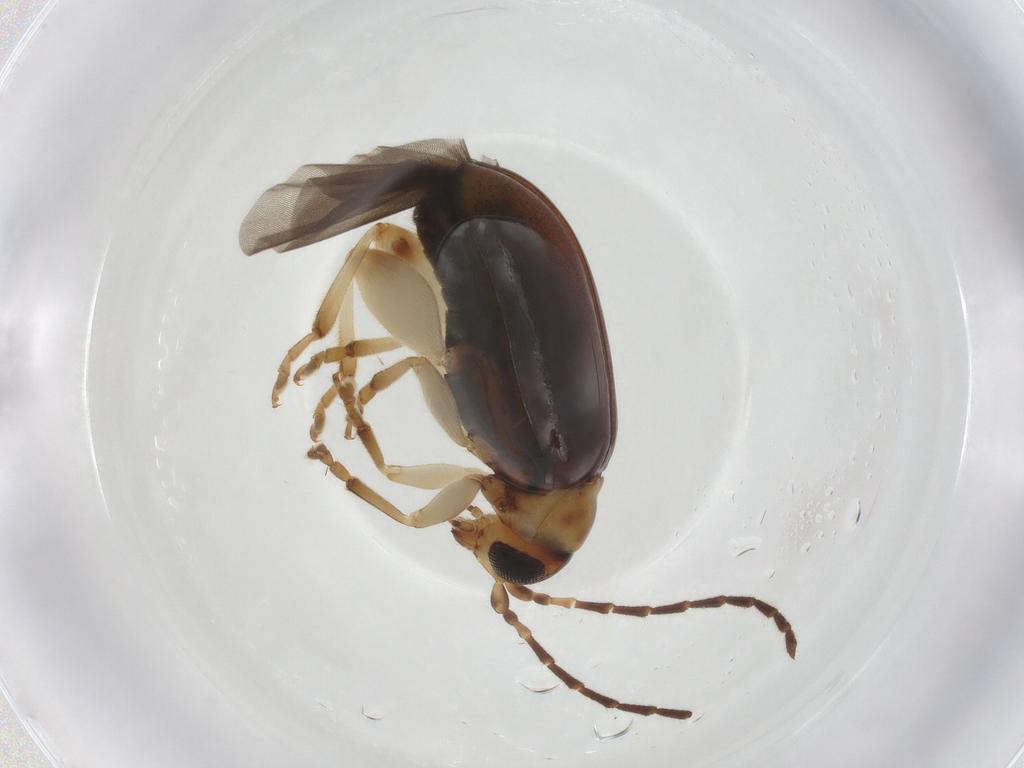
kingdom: Animalia
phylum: Arthropoda
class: Insecta
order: Coleoptera
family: Chrysomelidae
